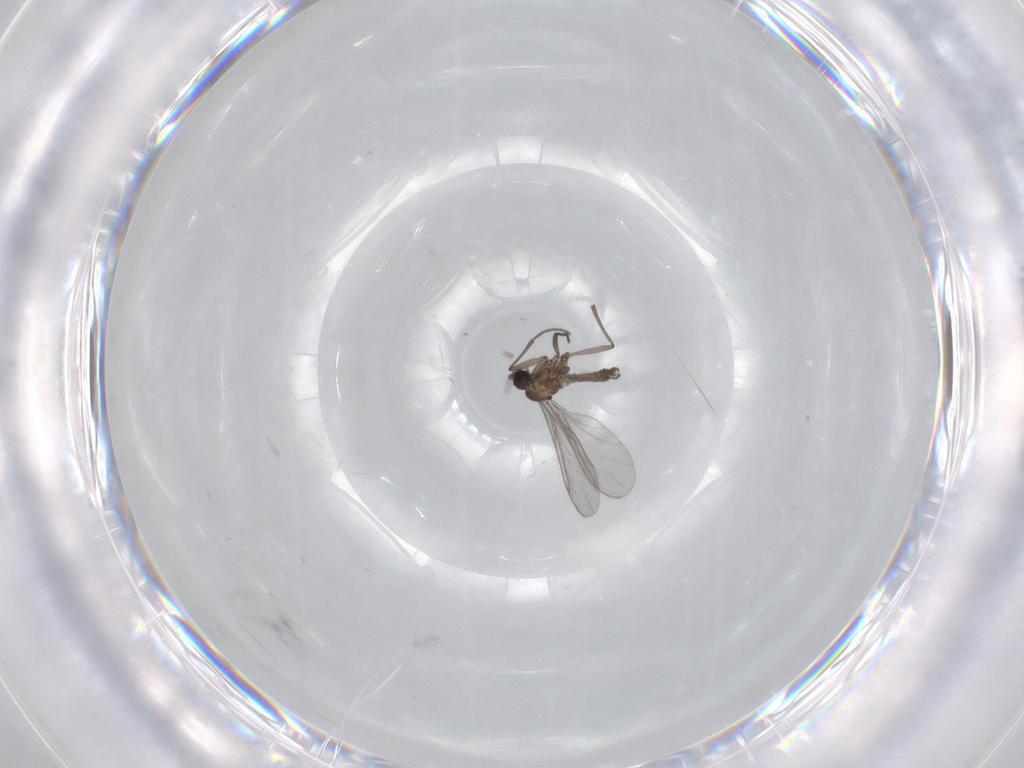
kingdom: Animalia
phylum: Arthropoda
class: Insecta
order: Diptera
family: Sciaridae
